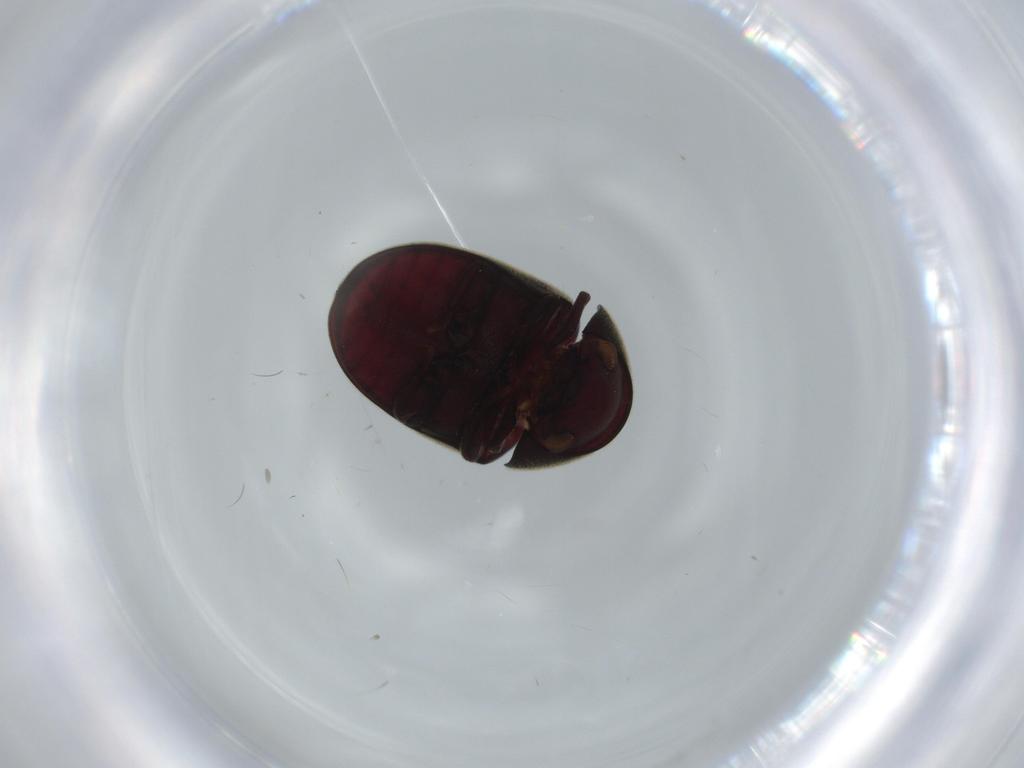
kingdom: Animalia
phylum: Arthropoda
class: Insecta
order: Coleoptera
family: Ptinidae
